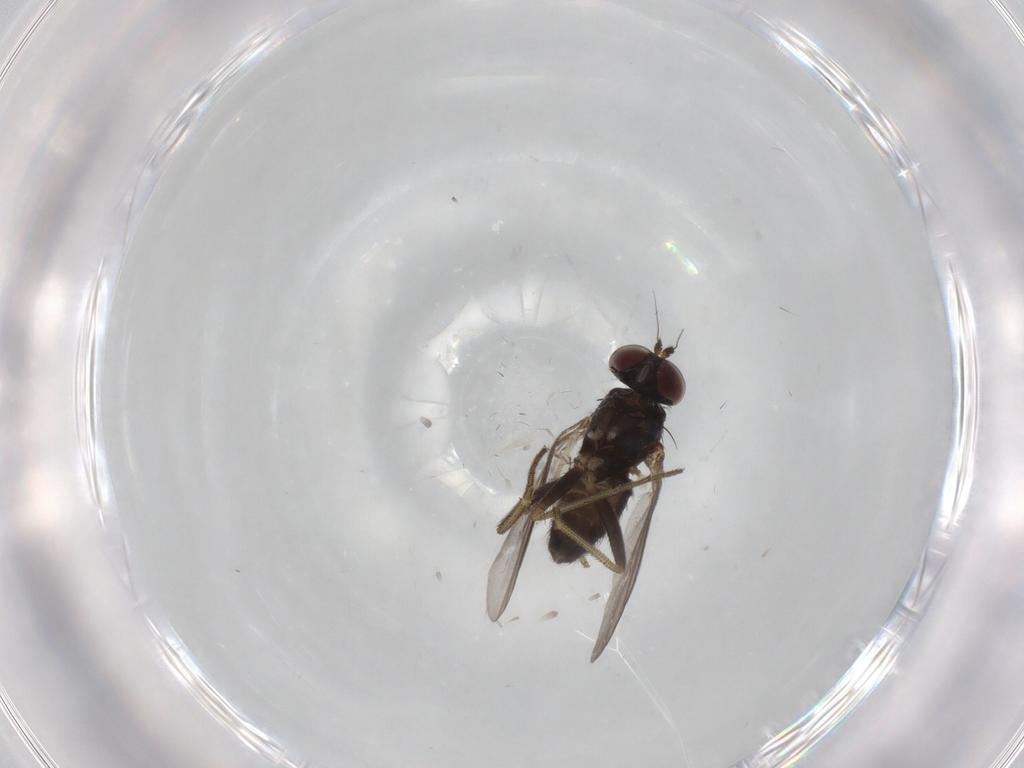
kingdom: Animalia
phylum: Arthropoda
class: Insecta
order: Diptera
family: Dolichopodidae
